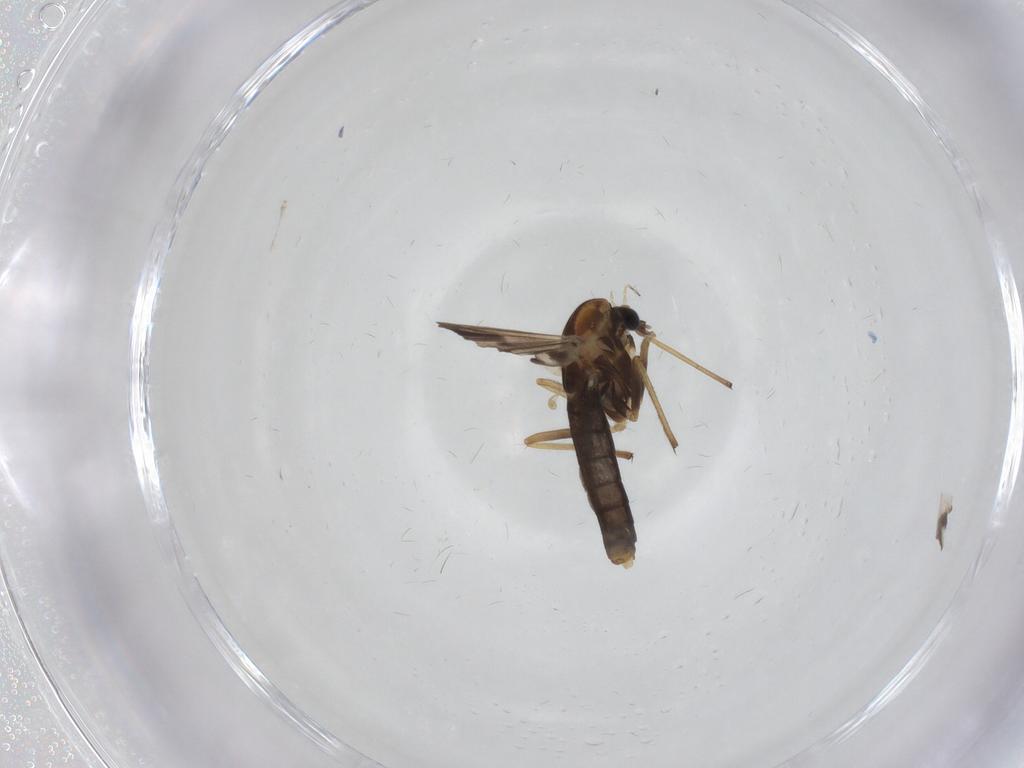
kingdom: Animalia
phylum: Arthropoda
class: Insecta
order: Diptera
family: Chironomidae
